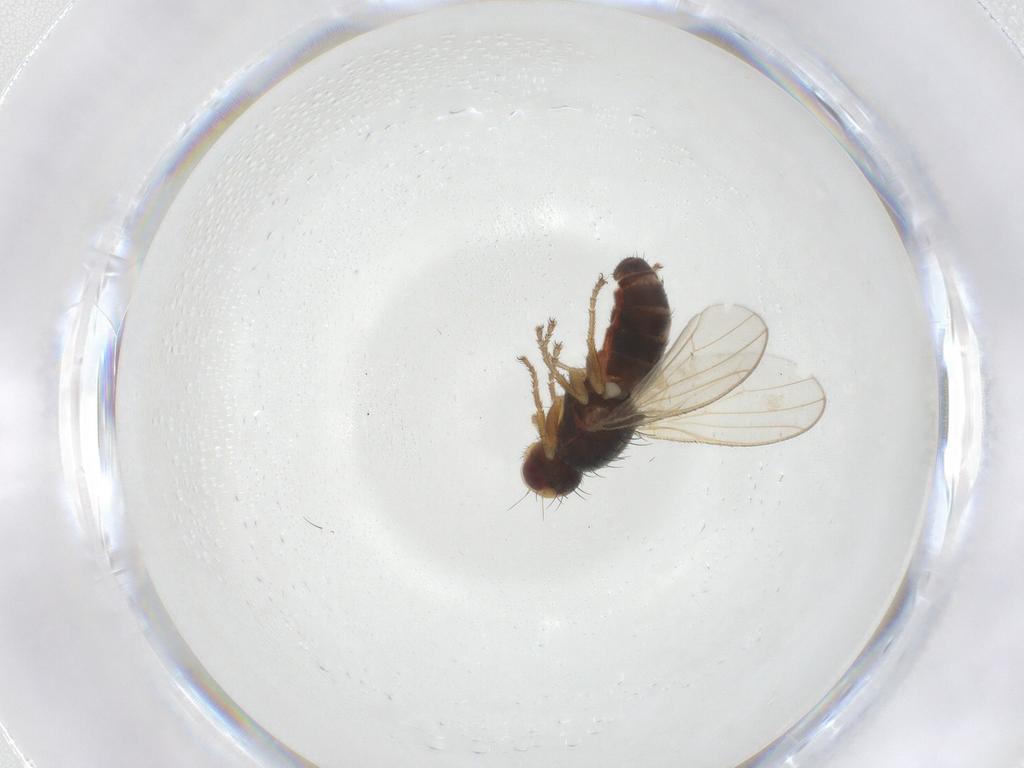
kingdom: Animalia
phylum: Arthropoda
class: Insecta
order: Diptera
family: Heleomyzidae
